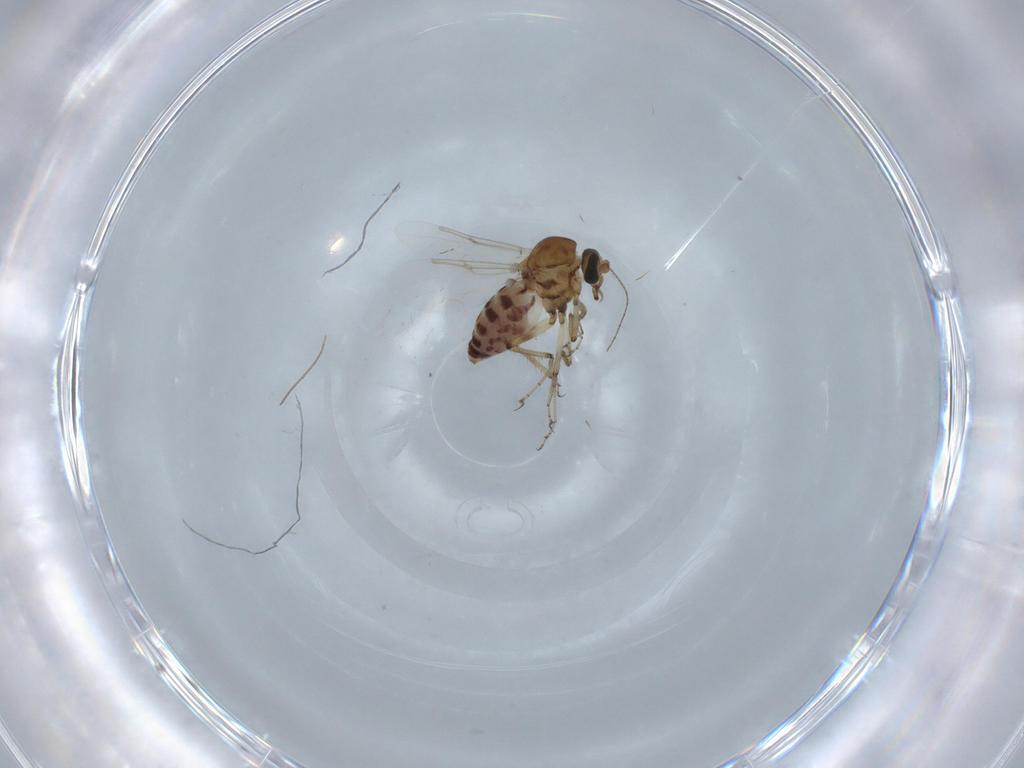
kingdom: Animalia
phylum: Arthropoda
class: Insecta
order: Diptera
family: Ceratopogonidae
